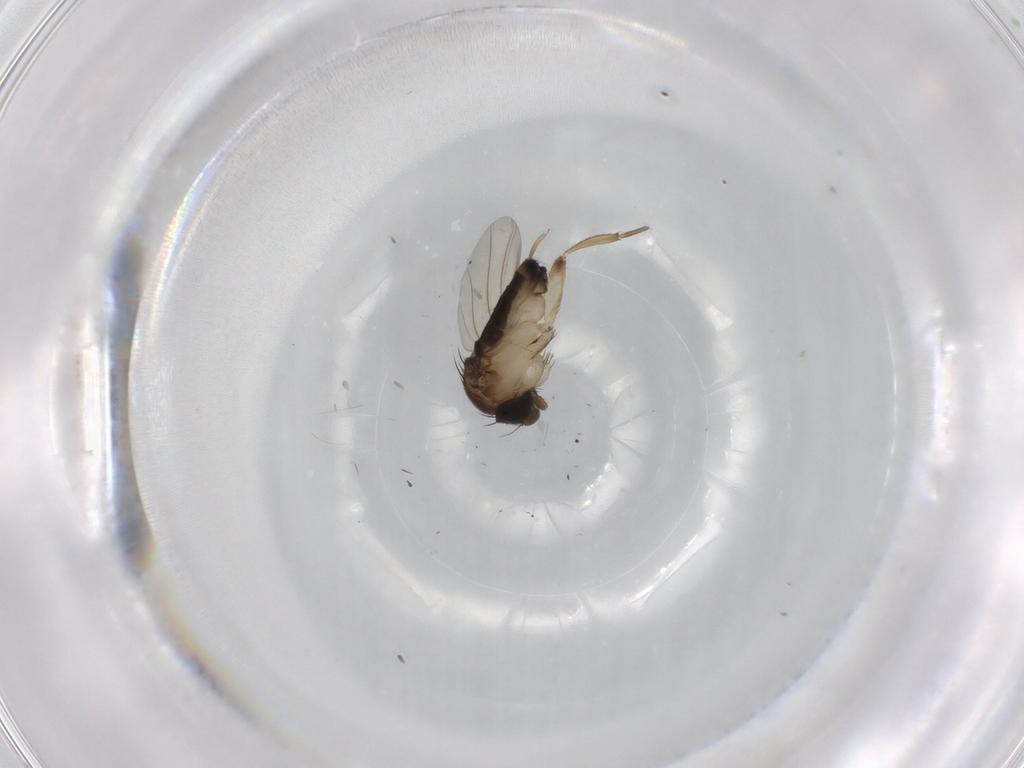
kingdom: Animalia
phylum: Arthropoda
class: Insecta
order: Diptera
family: Phoridae
